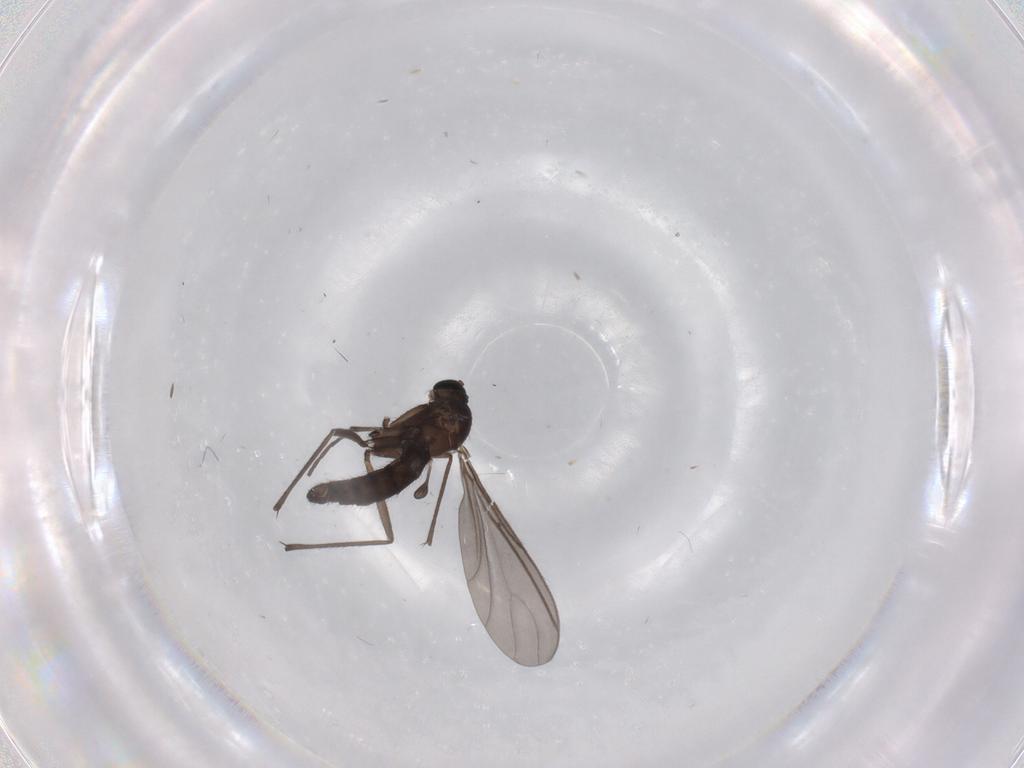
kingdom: Animalia
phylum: Arthropoda
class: Insecta
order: Diptera
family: Sciaridae
